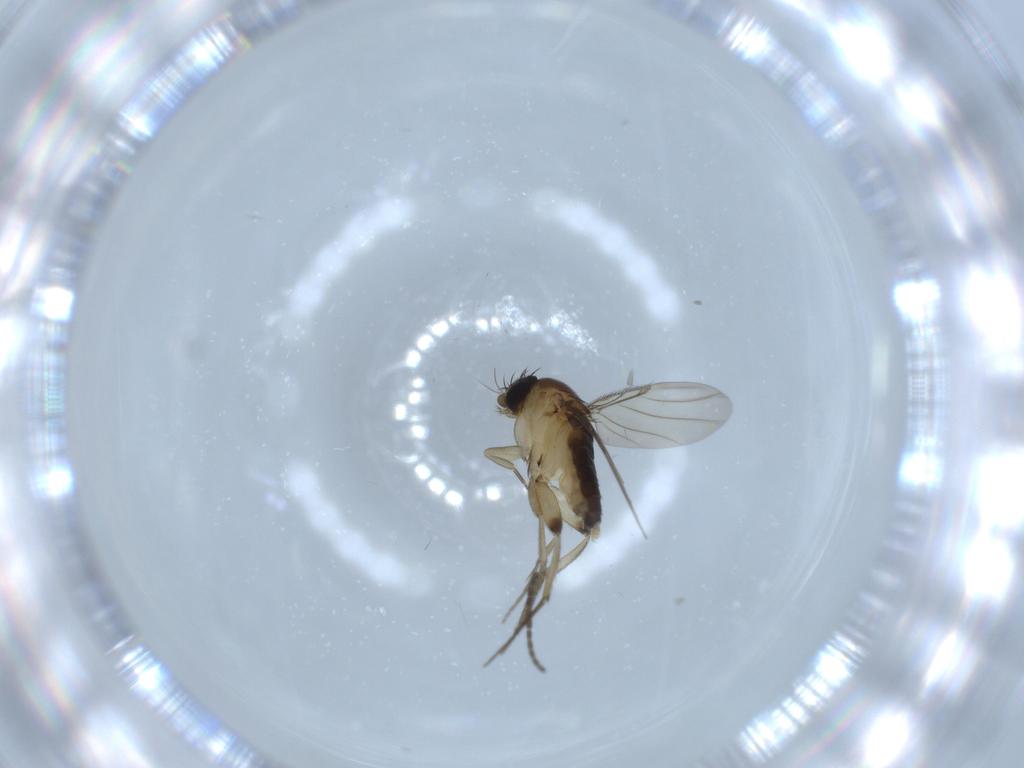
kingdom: Animalia
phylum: Arthropoda
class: Insecta
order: Diptera
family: Phoridae
